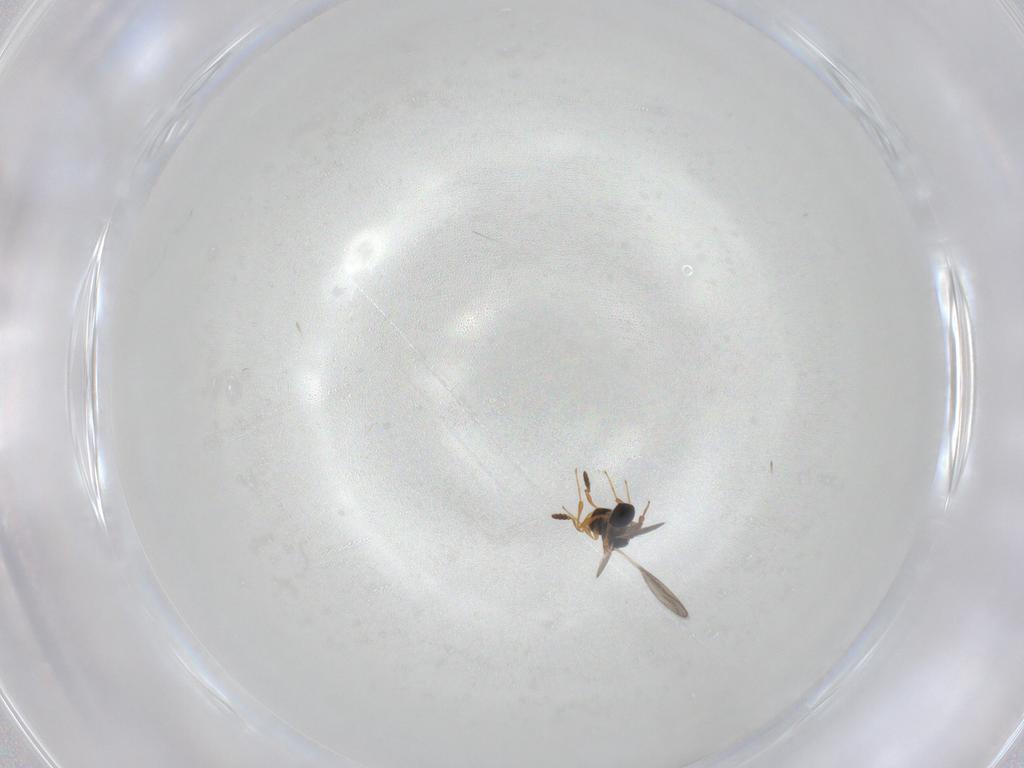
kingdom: Animalia
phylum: Arthropoda
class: Insecta
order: Hymenoptera
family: Platygastridae
